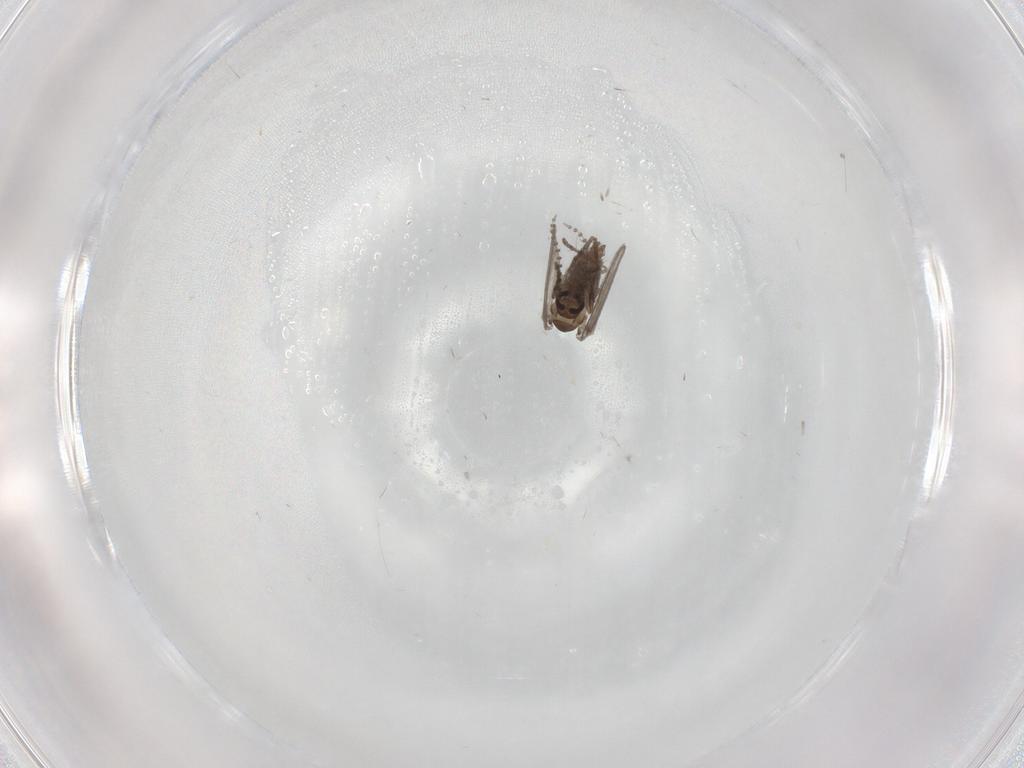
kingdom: Animalia
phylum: Arthropoda
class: Insecta
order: Diptera
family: Psychodidae
